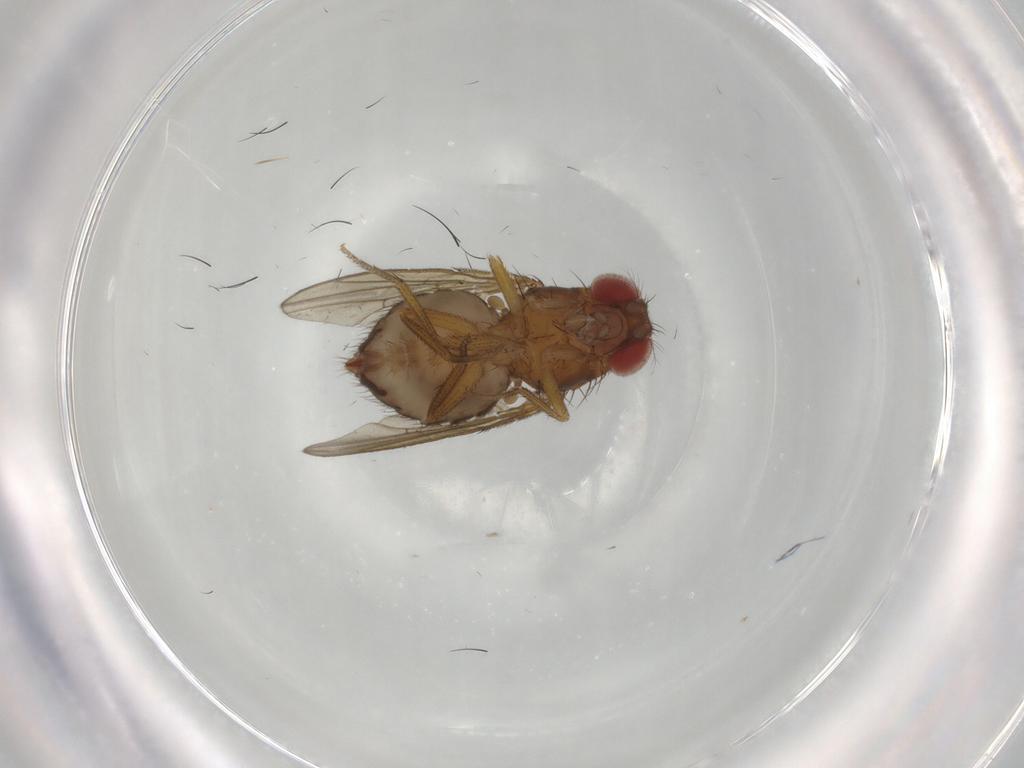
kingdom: Animalia
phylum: Arthropoda
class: Insecta
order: Diptera
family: Drosophilidae
